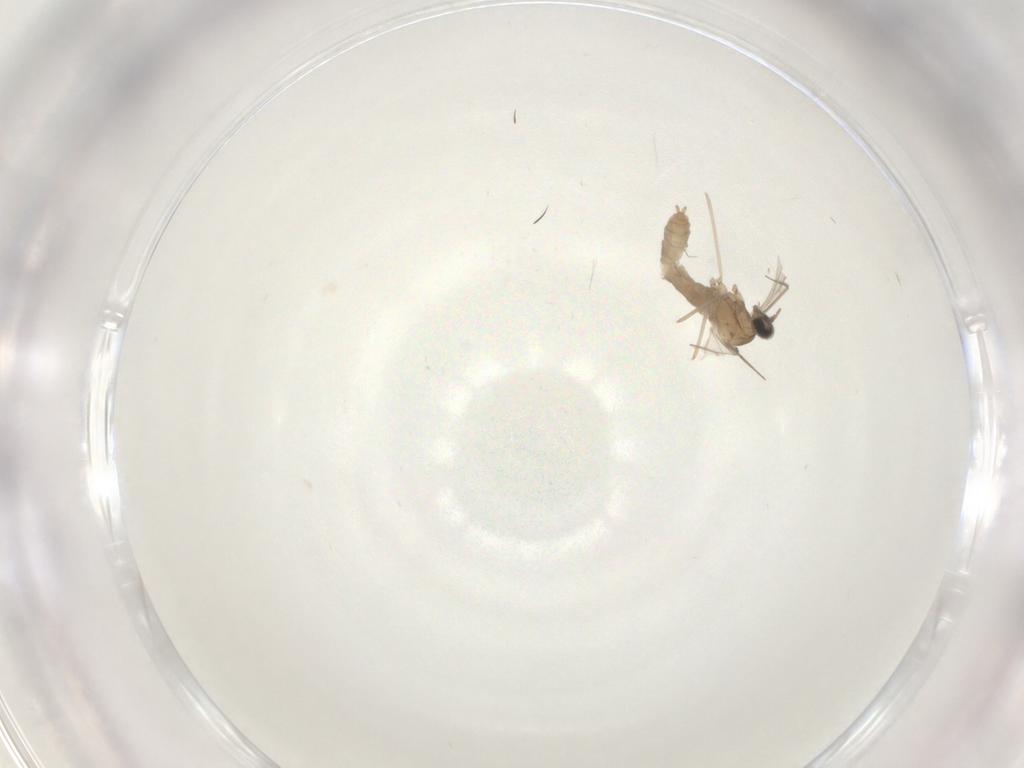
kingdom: Animalia
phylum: Arthropoda
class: Insecta
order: Diptera
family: Mycetophilidae
